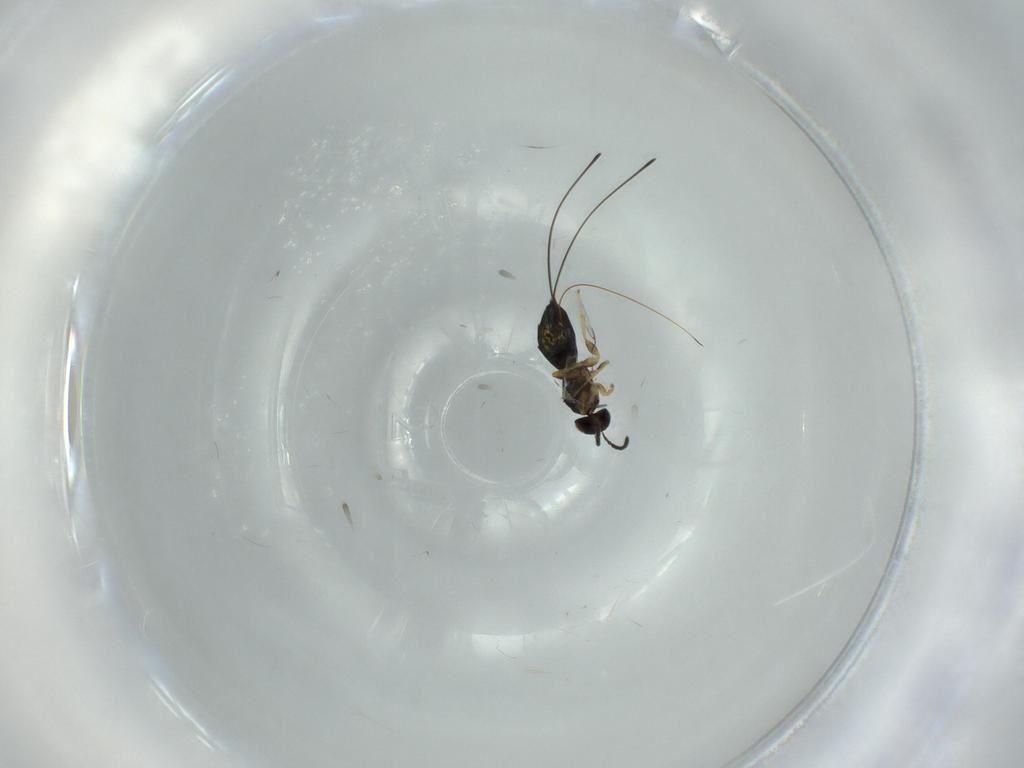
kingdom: Animalia
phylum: Arthropoda
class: Insecta
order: Hymenoptera
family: Agaonidae
